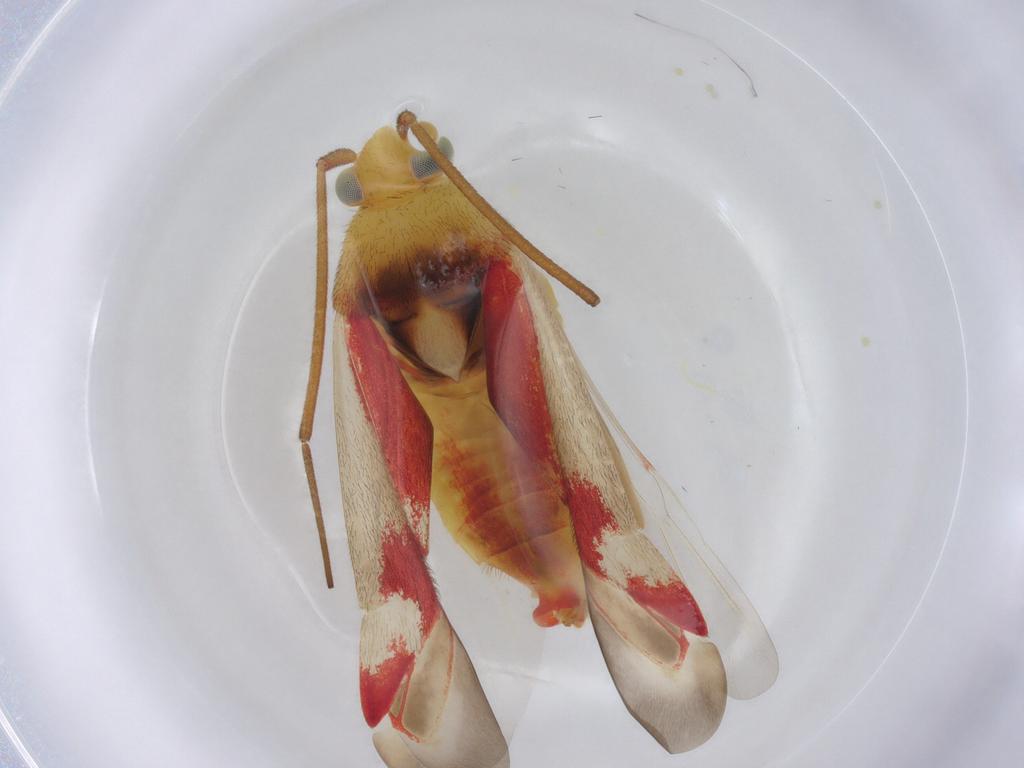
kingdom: Animalia
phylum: Arthropoda
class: Insecta
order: Hemiptera
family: Miridae
